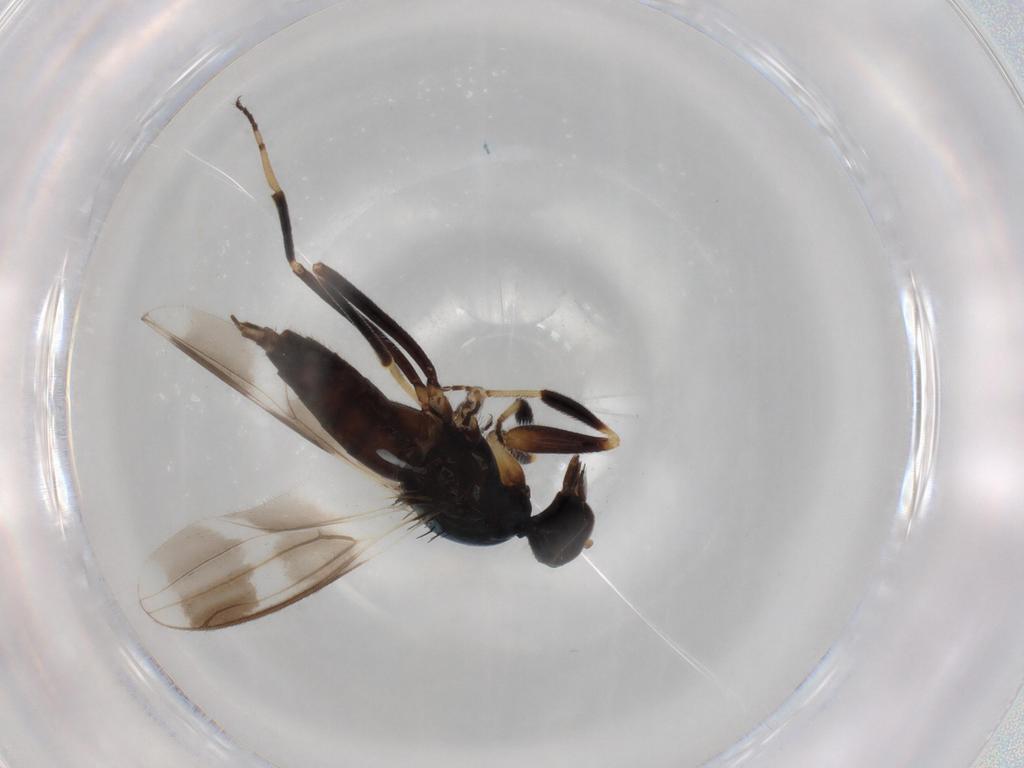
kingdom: Animalia
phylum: Arthropoda
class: Insecta
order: Diptera
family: Hybotidae
